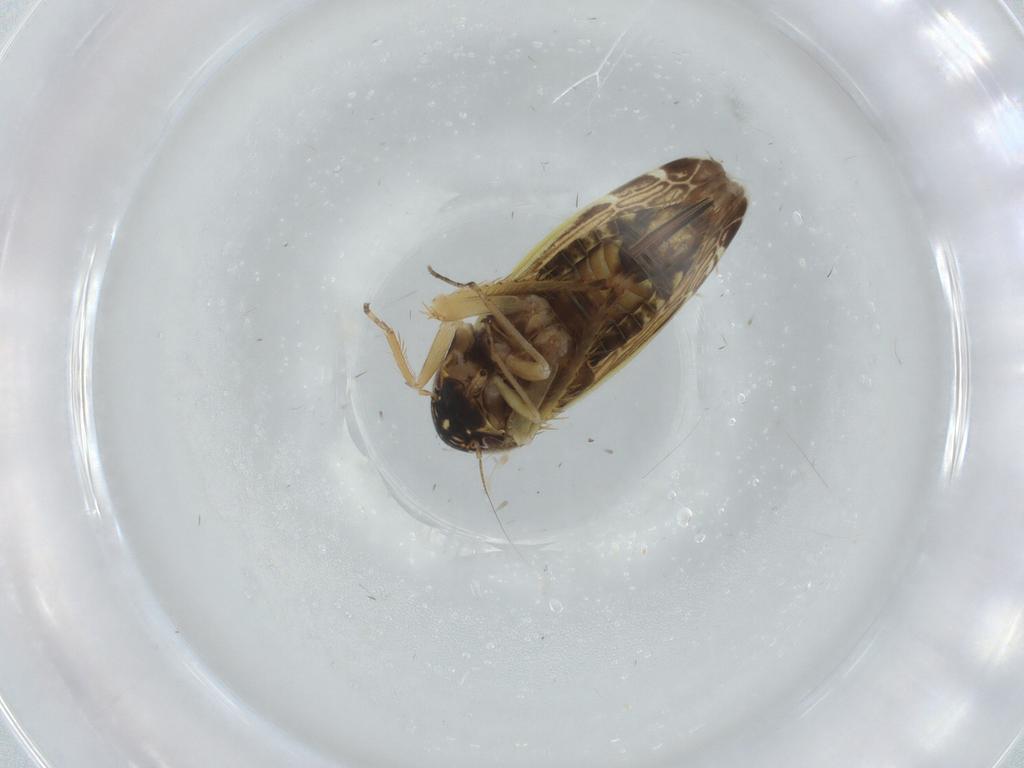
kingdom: Animalia
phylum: Arthropoda
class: Insecta
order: Hemiptera
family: Cicadellidae
